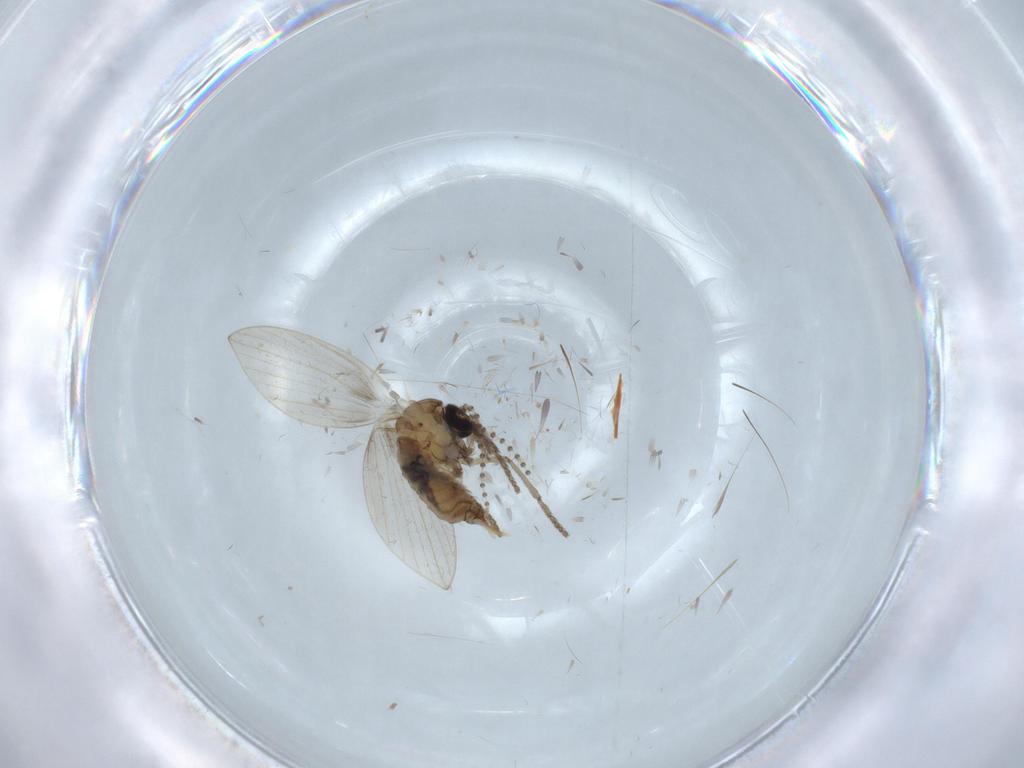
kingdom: Animalia
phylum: Arthropoda
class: Insecta
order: Diptera
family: Psychodidae
